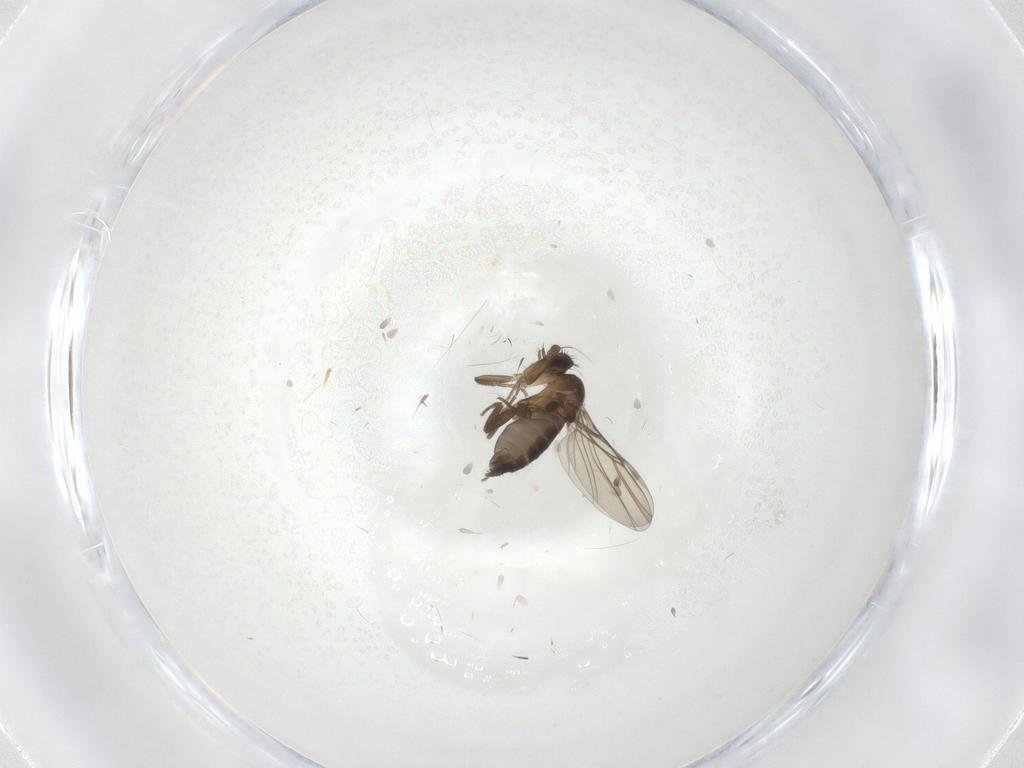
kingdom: Animalia
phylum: Arthropoda
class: Insecta
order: Diptera
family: Phoridae
